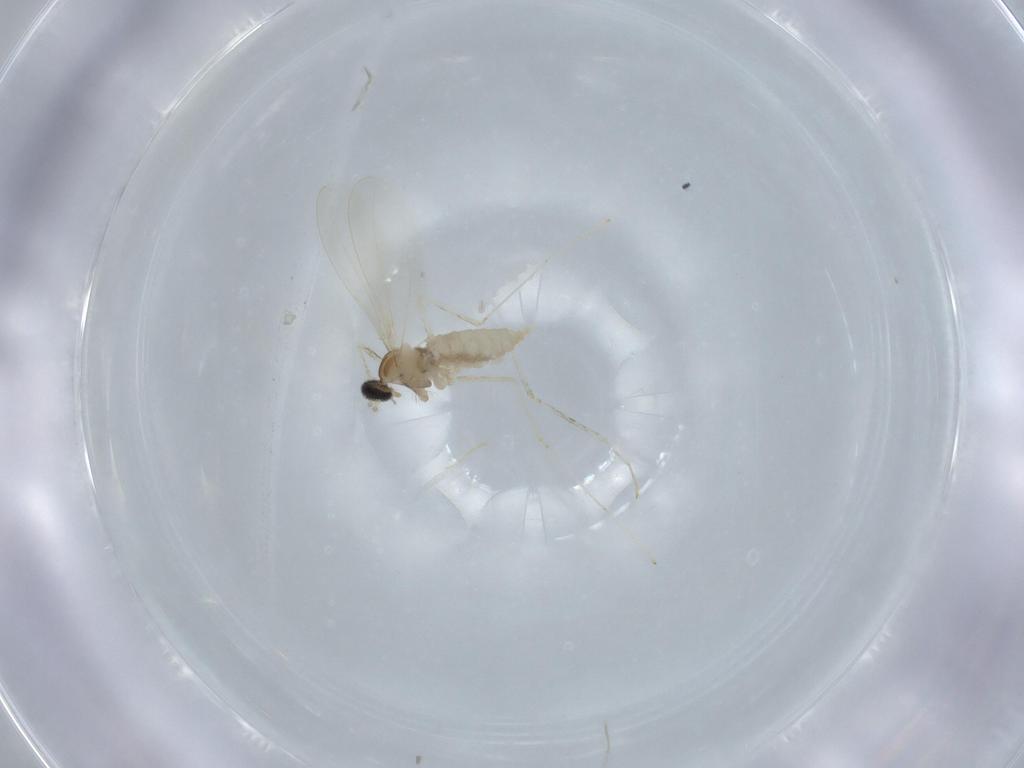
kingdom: Animalia
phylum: Arthropoda
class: Insecta
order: Diptera
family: Cecidomyiidae
